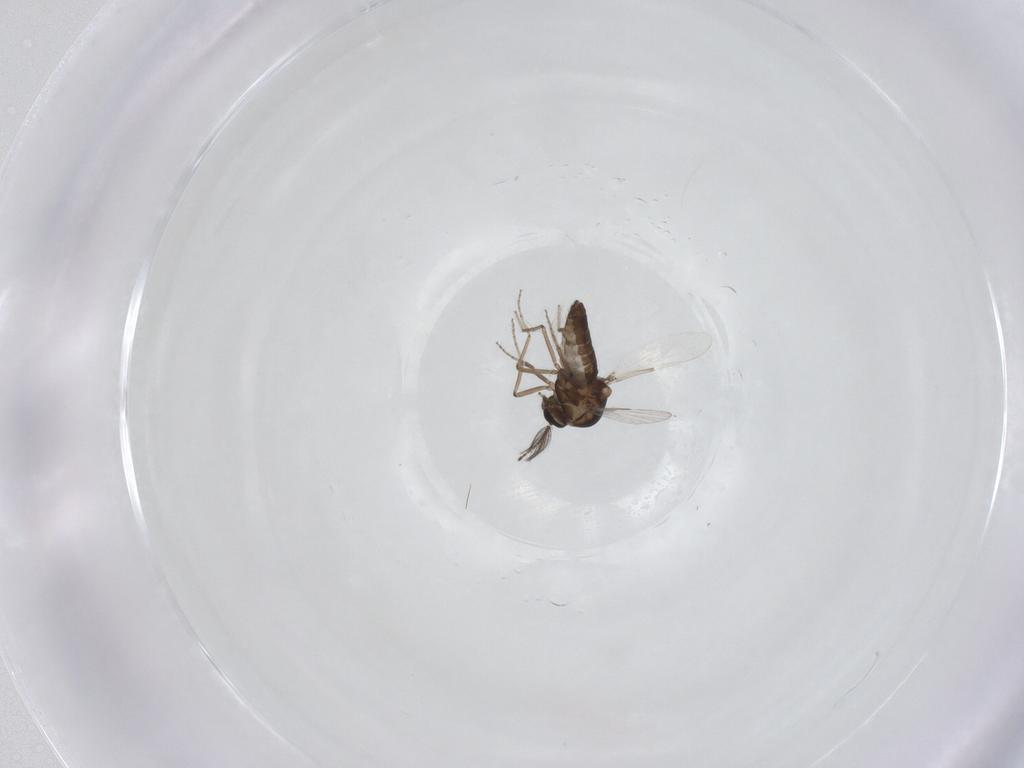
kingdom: Animalia
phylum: Arthropoda
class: Insecta
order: Diptera
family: Ceratopogonidae
